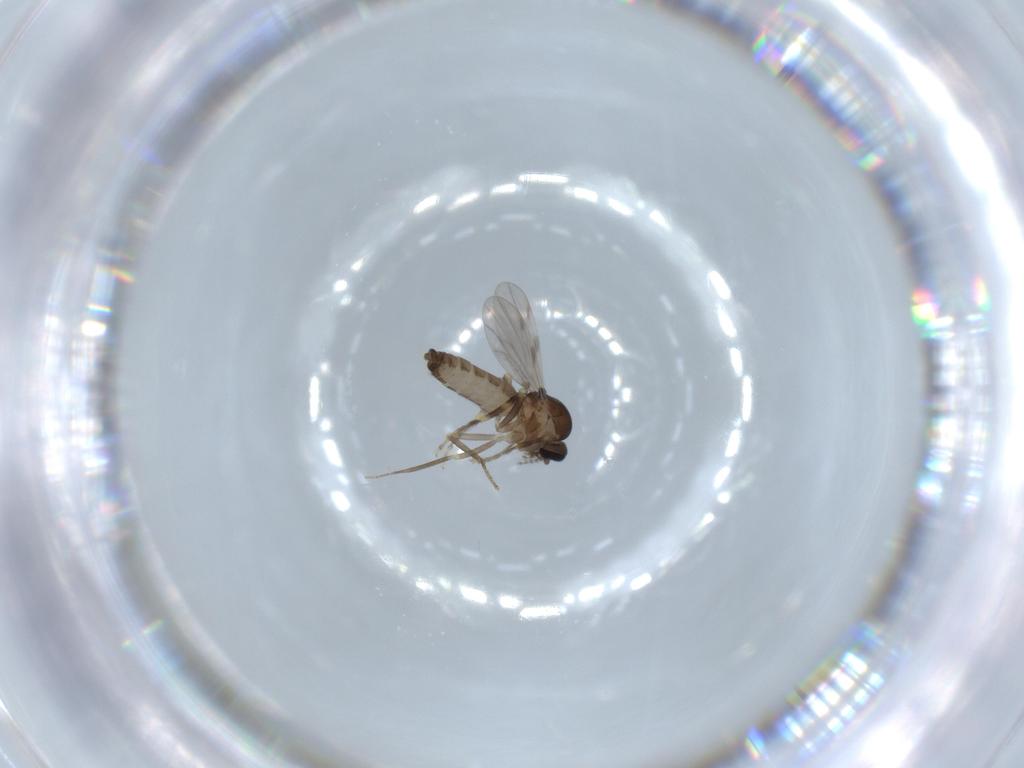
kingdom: Animalia
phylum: Arthropoda
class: Insecta
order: Diptera
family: Ceratopogonidae
